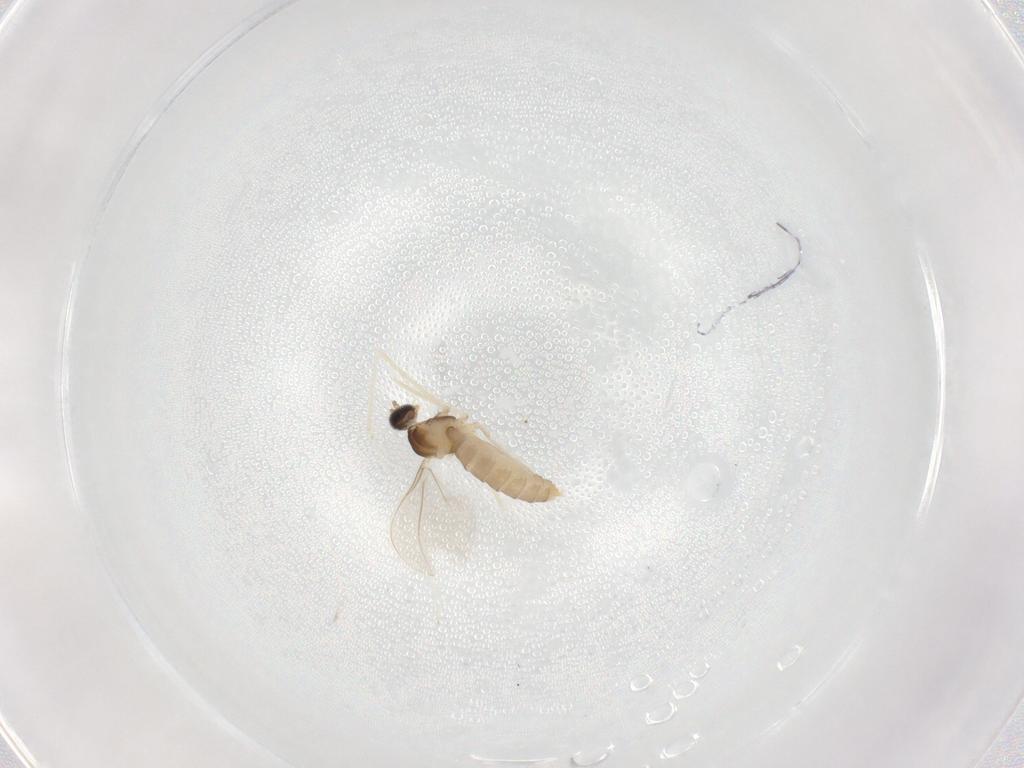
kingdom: Animalia
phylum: Arthropoda
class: Insecta
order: Diptera
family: Cecidomyiidae
